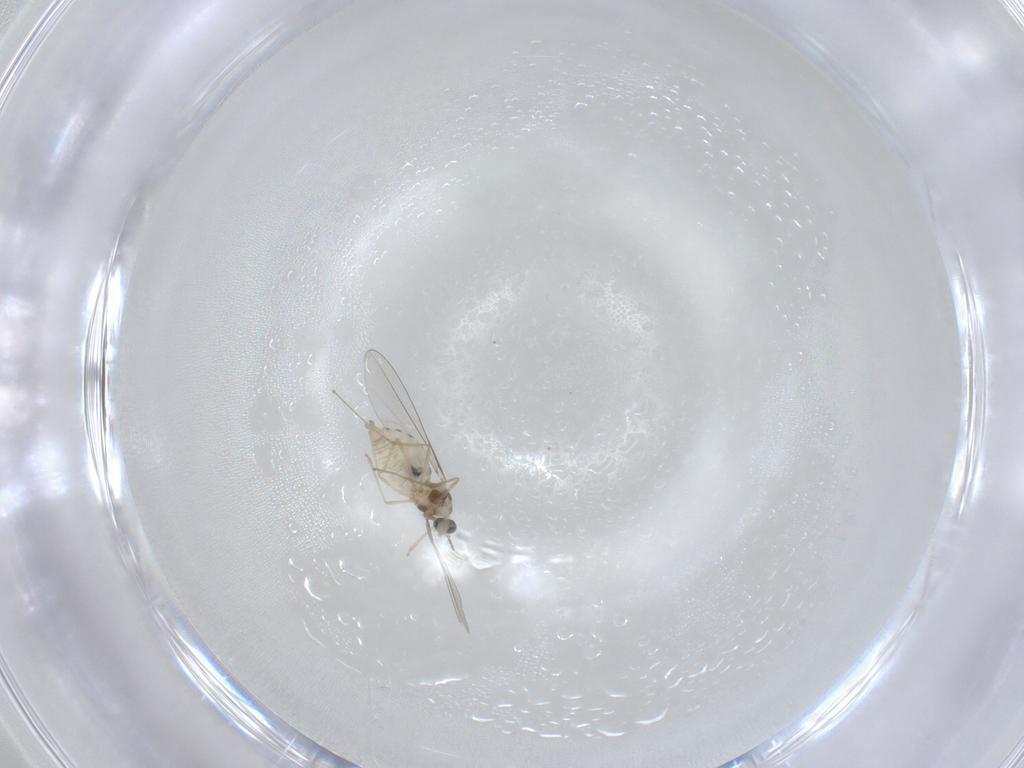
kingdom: Animalia
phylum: Arthropoda
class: Insecta
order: Diptera
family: Cecidomyiidae
